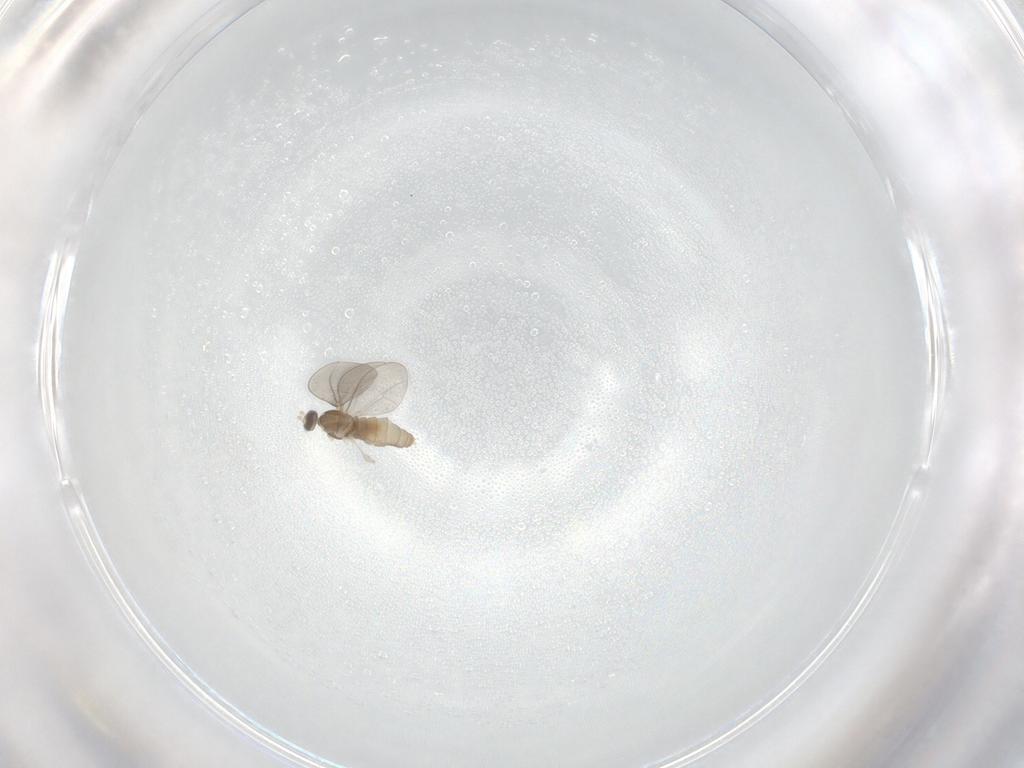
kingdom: Animalia
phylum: Arthropoda
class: Insecta
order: Diptera
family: Cecidomyiidae
